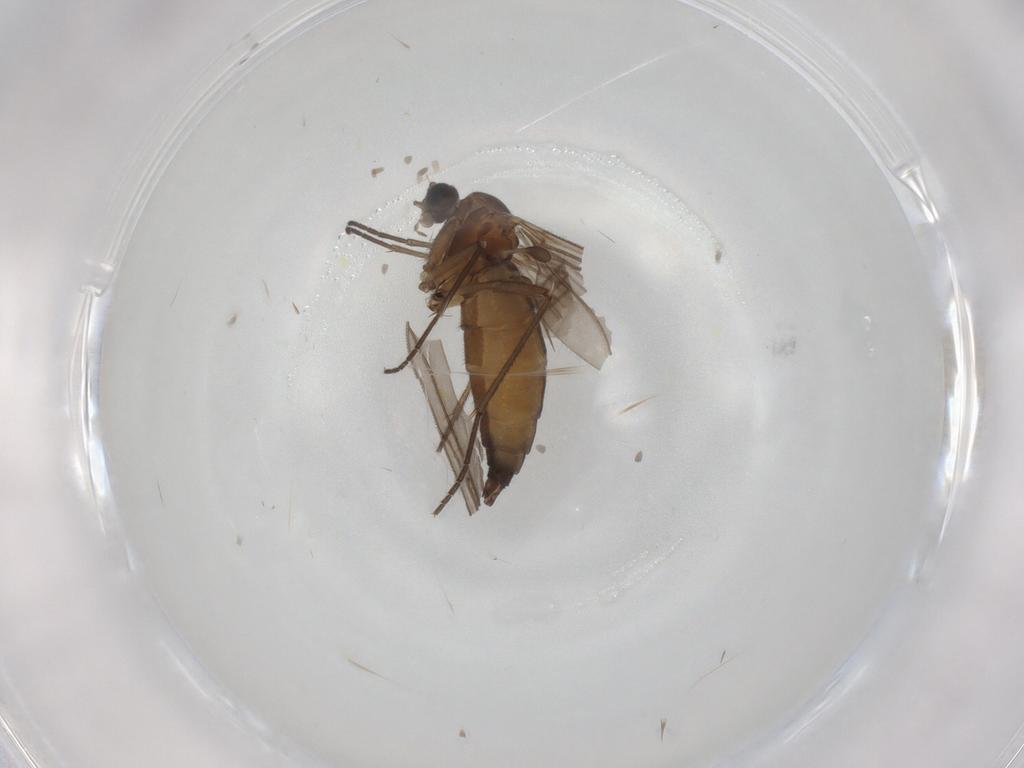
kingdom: Animalia
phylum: Arthropoda
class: Insecta
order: Diptera
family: Sciaridae
